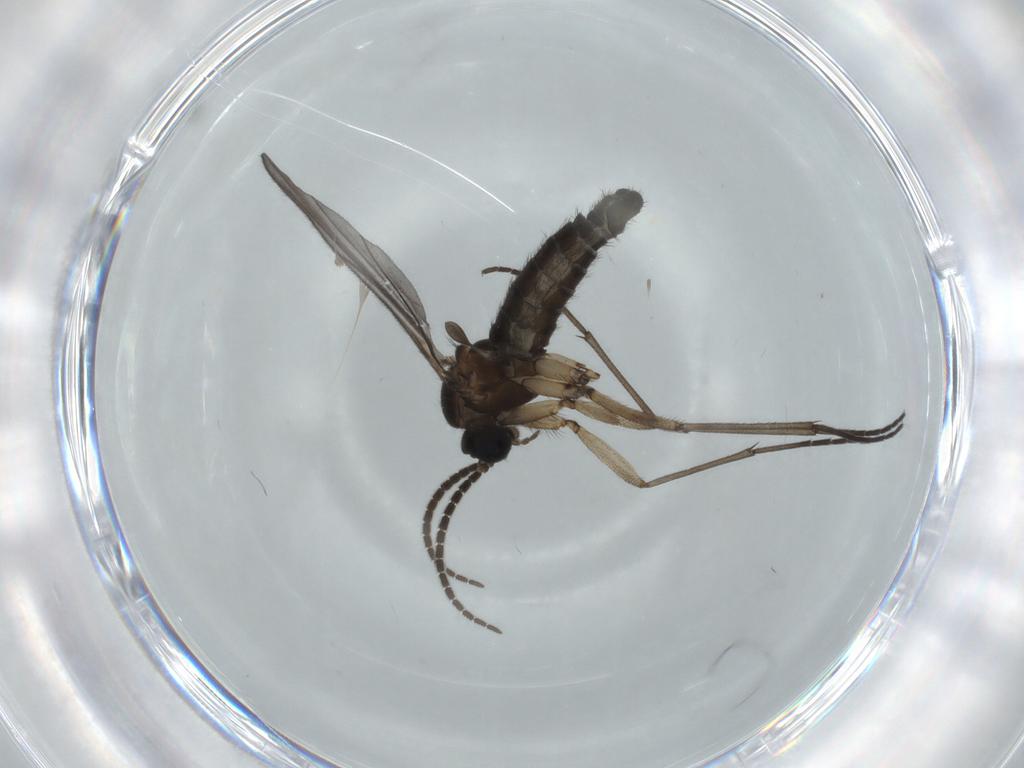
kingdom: Animalia
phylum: Arthropoda
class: Insecta
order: Diptera
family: Sciaridae
